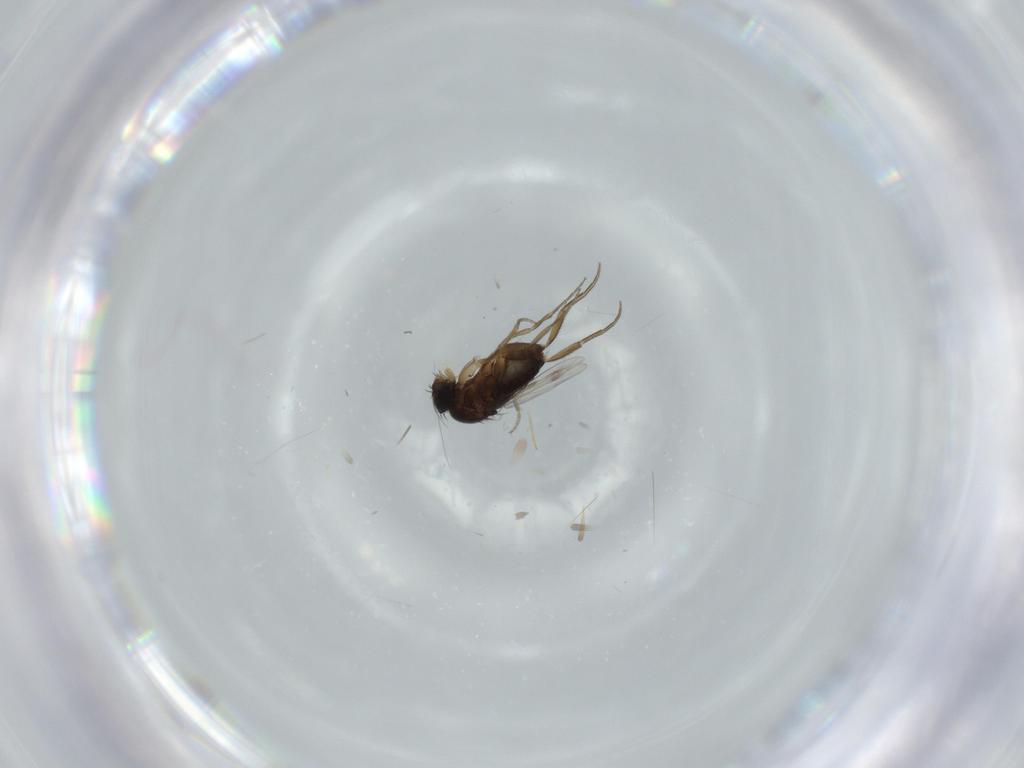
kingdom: Animalia
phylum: Arthropoda
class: Insecta
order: Diptera
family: Phoridae
